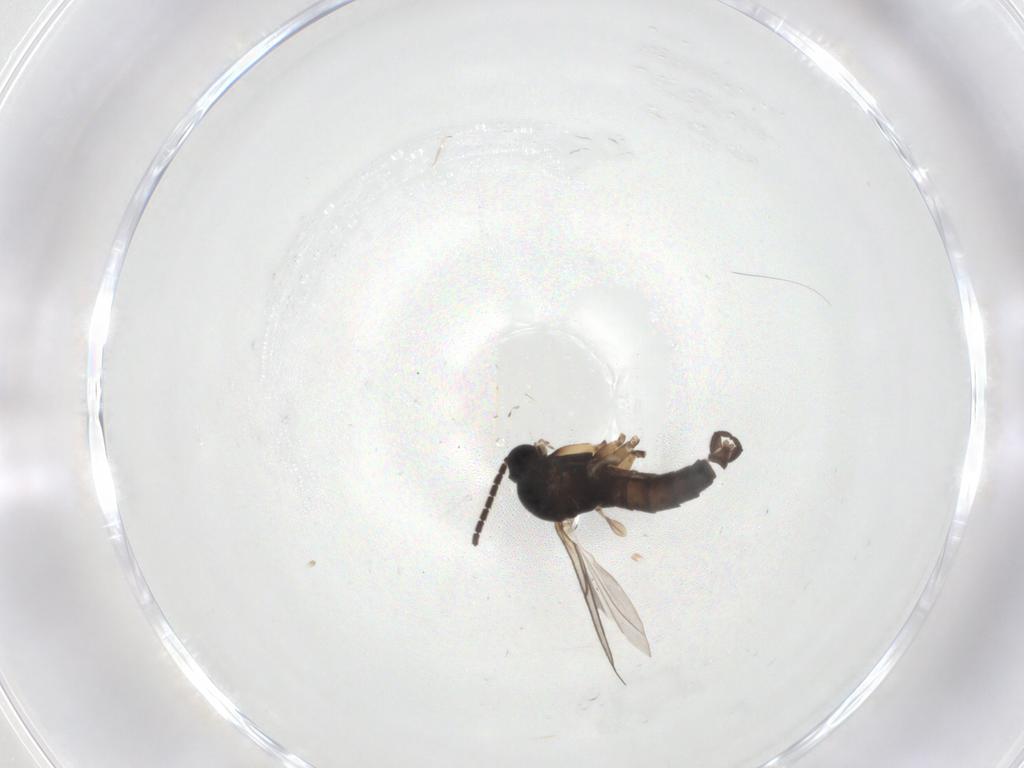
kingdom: Animalia
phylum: Arthropoda
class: Insecta
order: Diptera
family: Sciaridae
